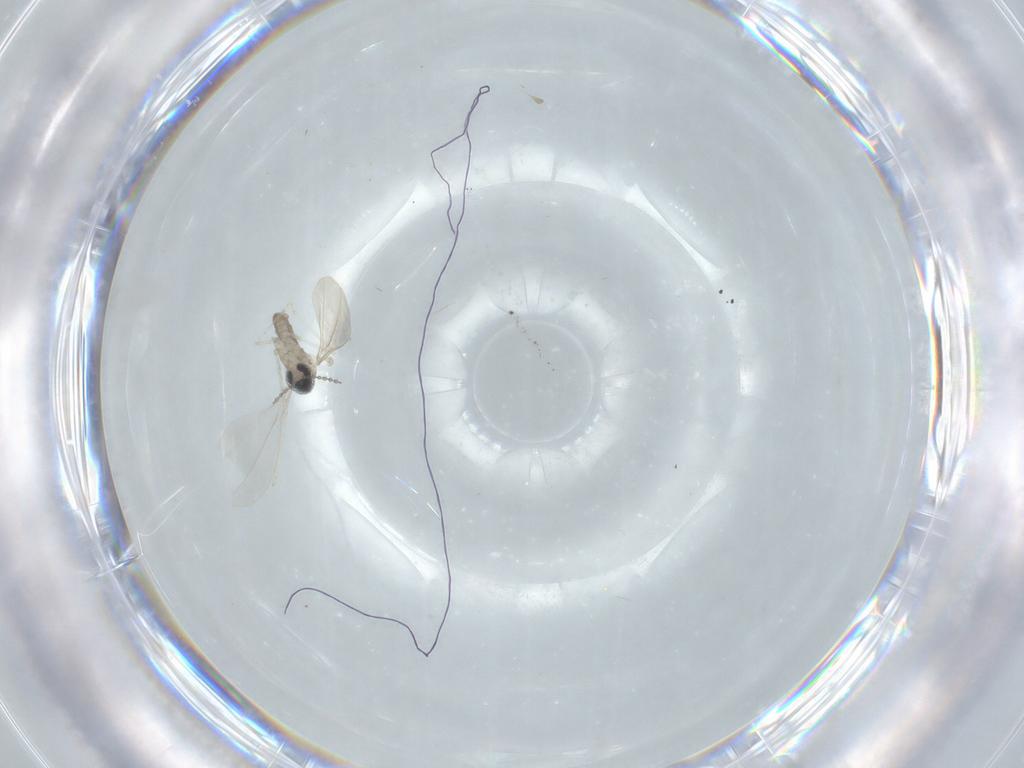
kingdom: Animalia
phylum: Arthropoda
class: Insecta
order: Diptera
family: Cecidomyiidae
